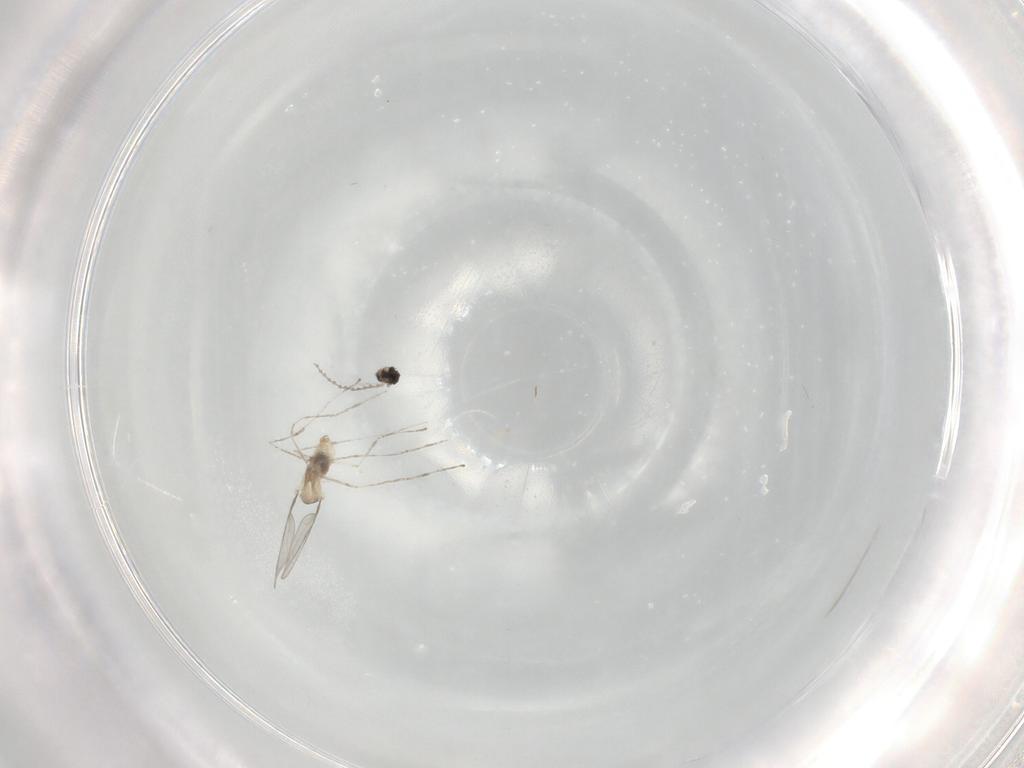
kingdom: Animalia
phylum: Arthropoda
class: Insecta
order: Diptera
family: Cecidomyiidae
